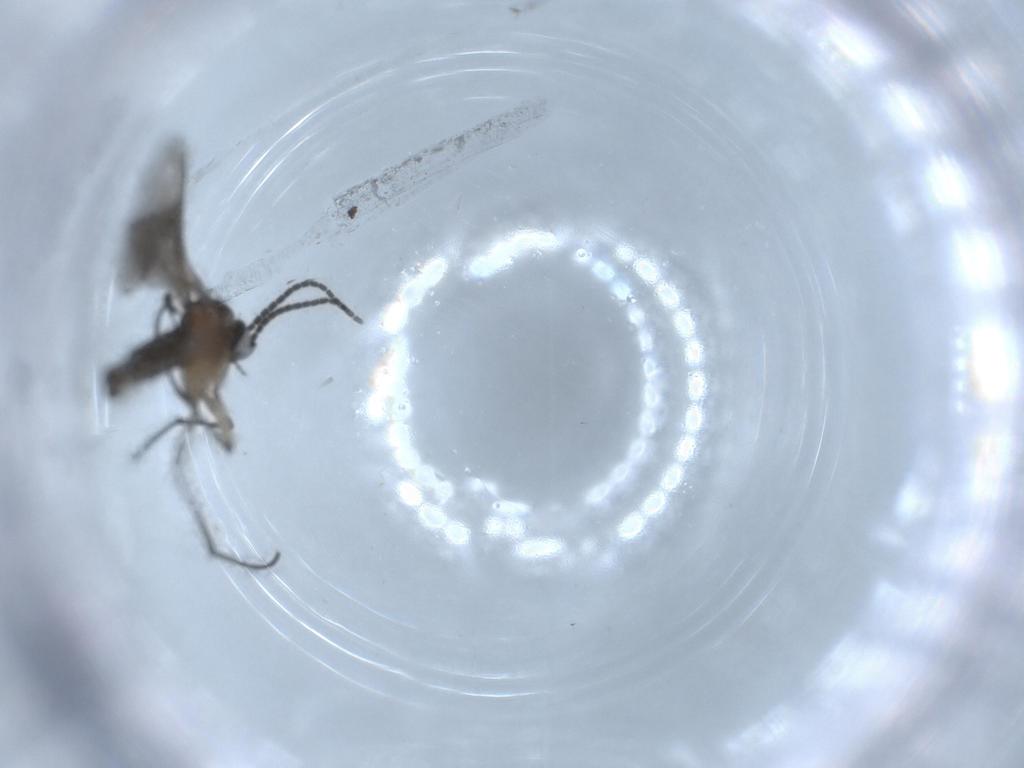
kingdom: Animalia
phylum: Arthropoda
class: Insecta
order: Diptera
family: Sciaridae
